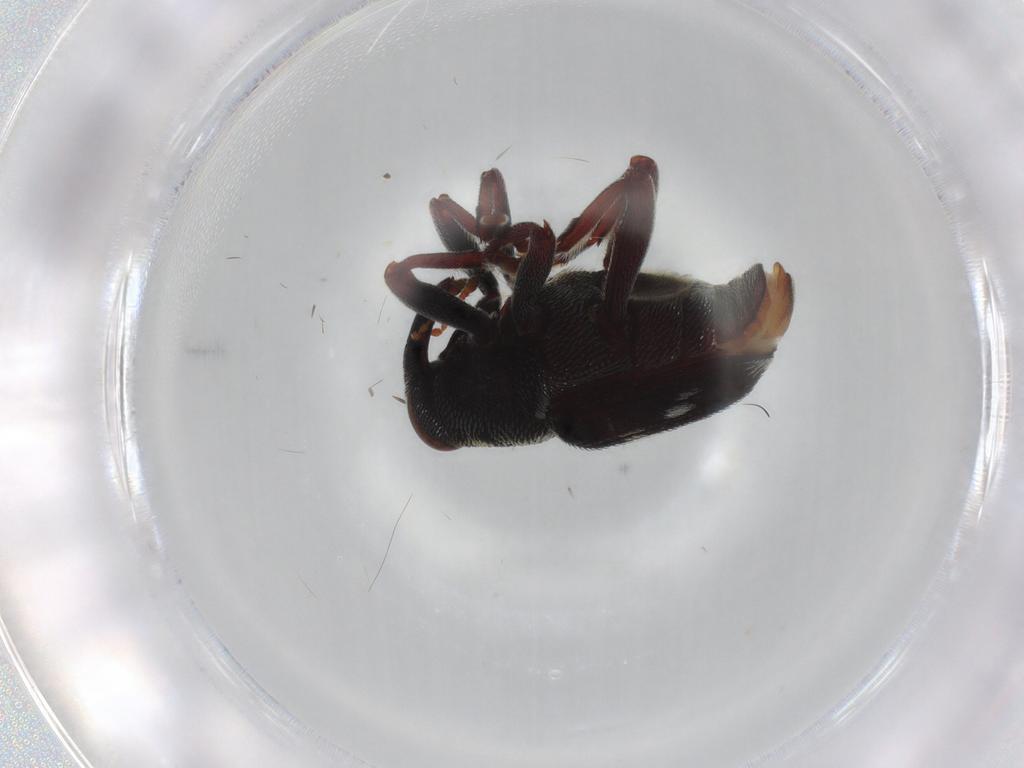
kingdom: Animalia
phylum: Arthropoda
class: Insecta
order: Coleoptera
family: Curculionidae
